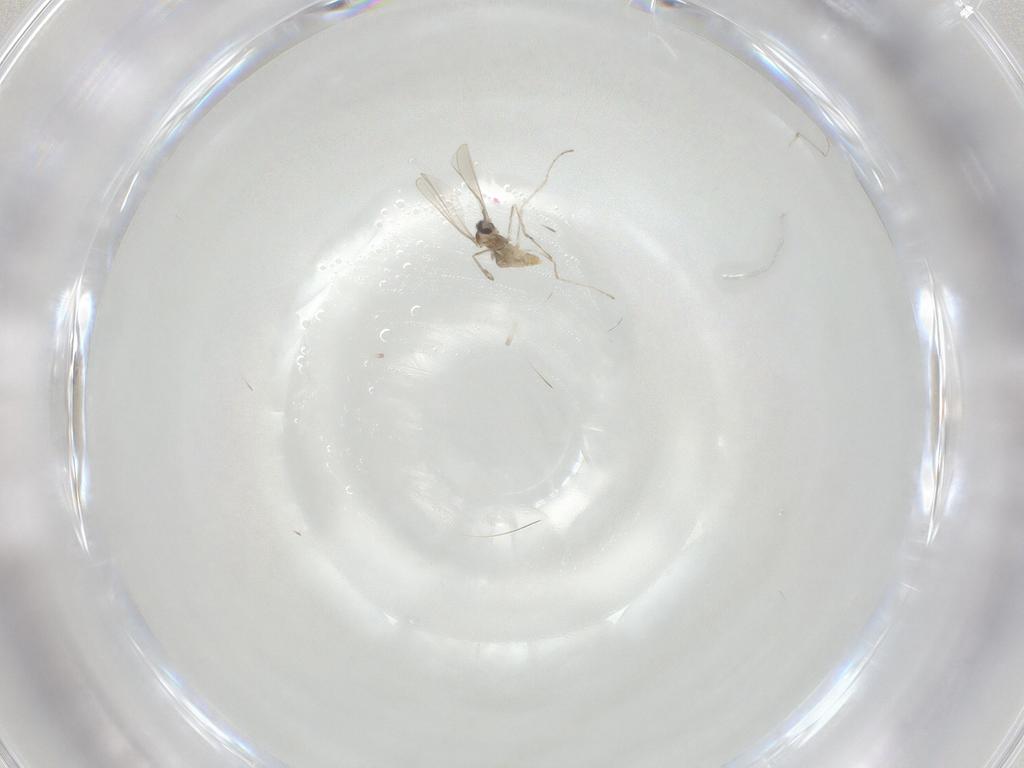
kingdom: Animalia
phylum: Arthropoda
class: Insecta
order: Diptera
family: Cecidomyiidae
